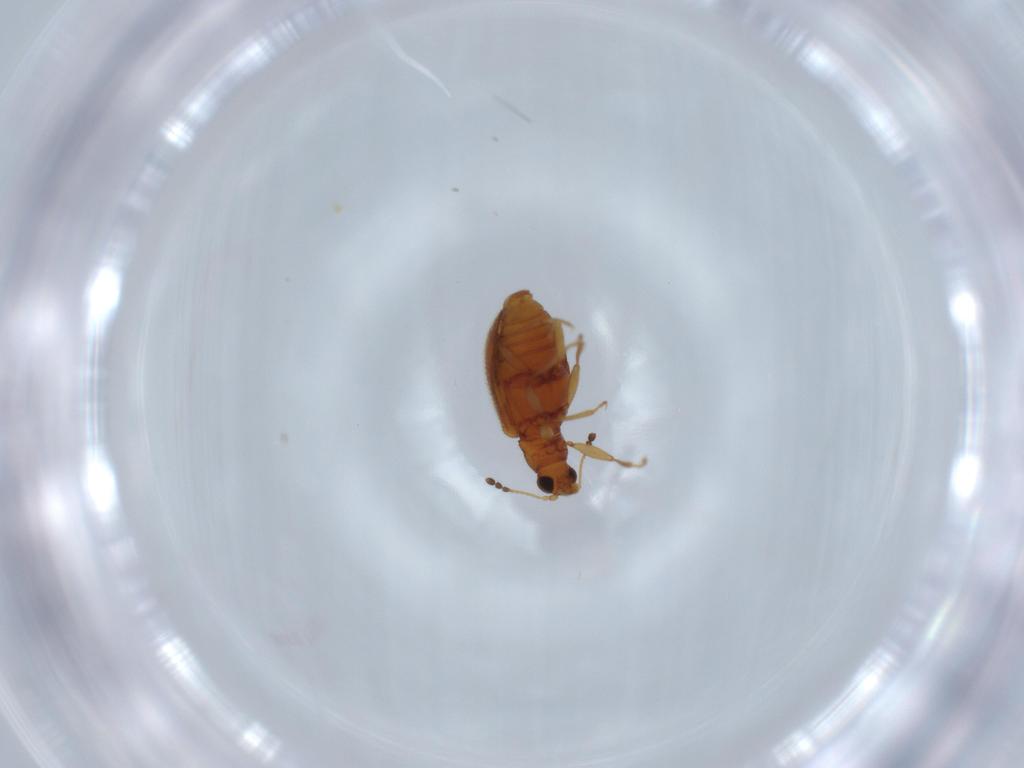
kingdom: Animalia
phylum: Arthropoda
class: Insecta
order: Coleoptera
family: Latridiidae
